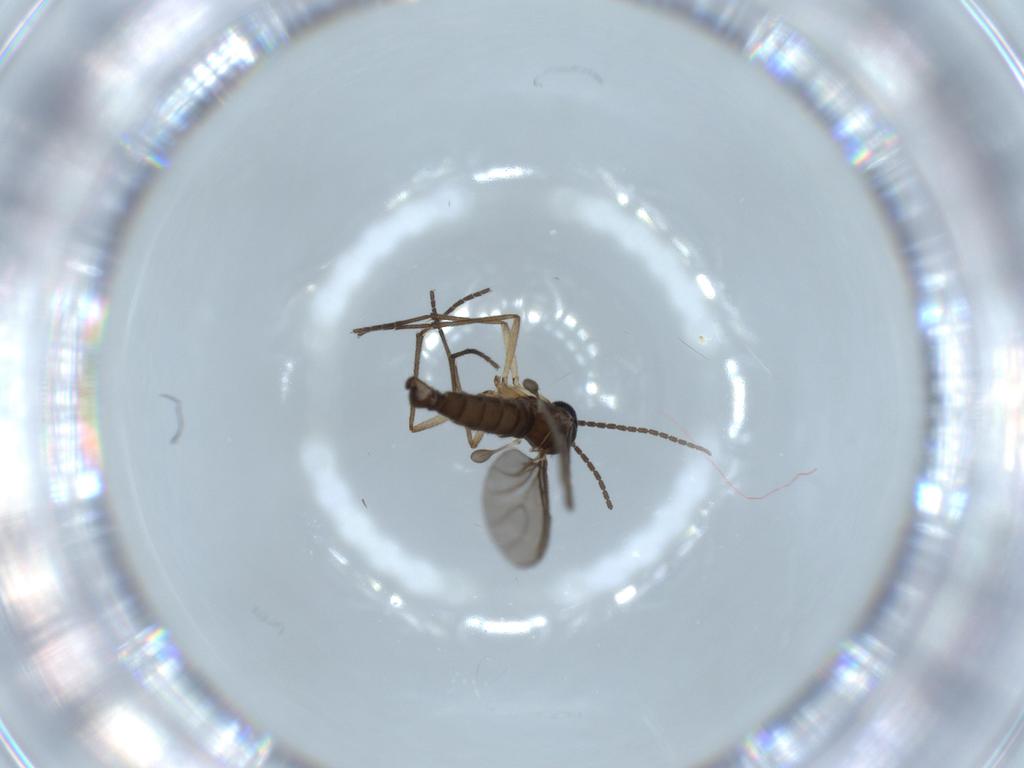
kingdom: Animalia
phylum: Arthropoda
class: Insecta
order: Diptera
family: Sciaridae
